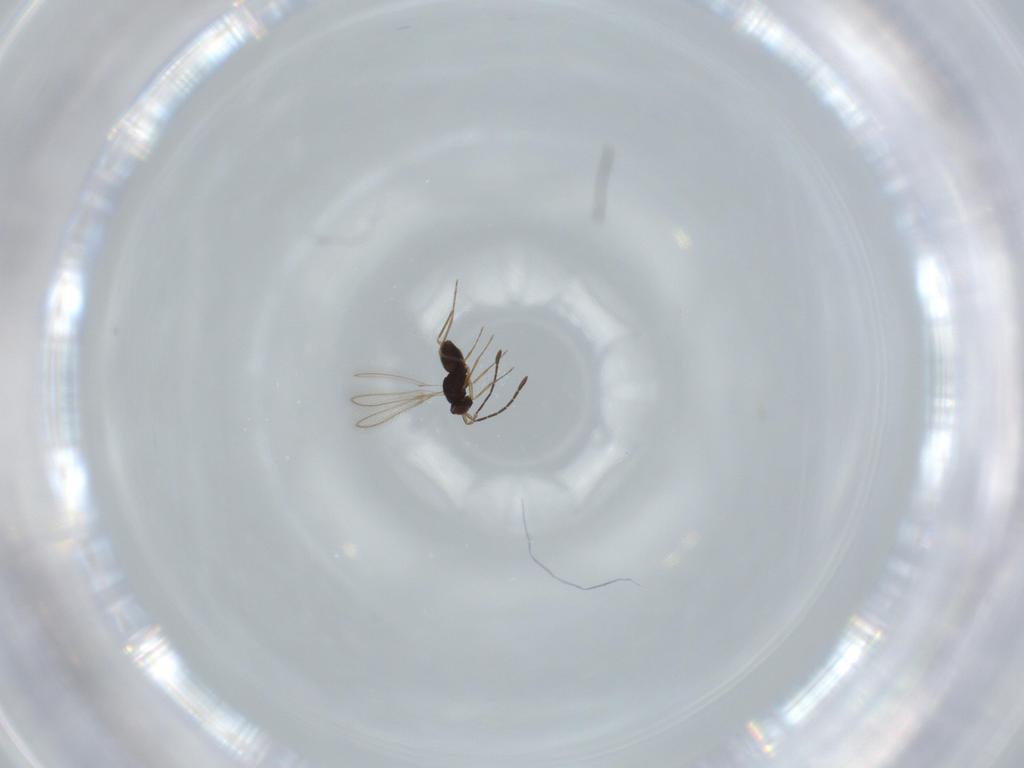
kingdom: Animalia
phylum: Arthropoda
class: Insecta
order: Hymenoptera
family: Mymaridae
